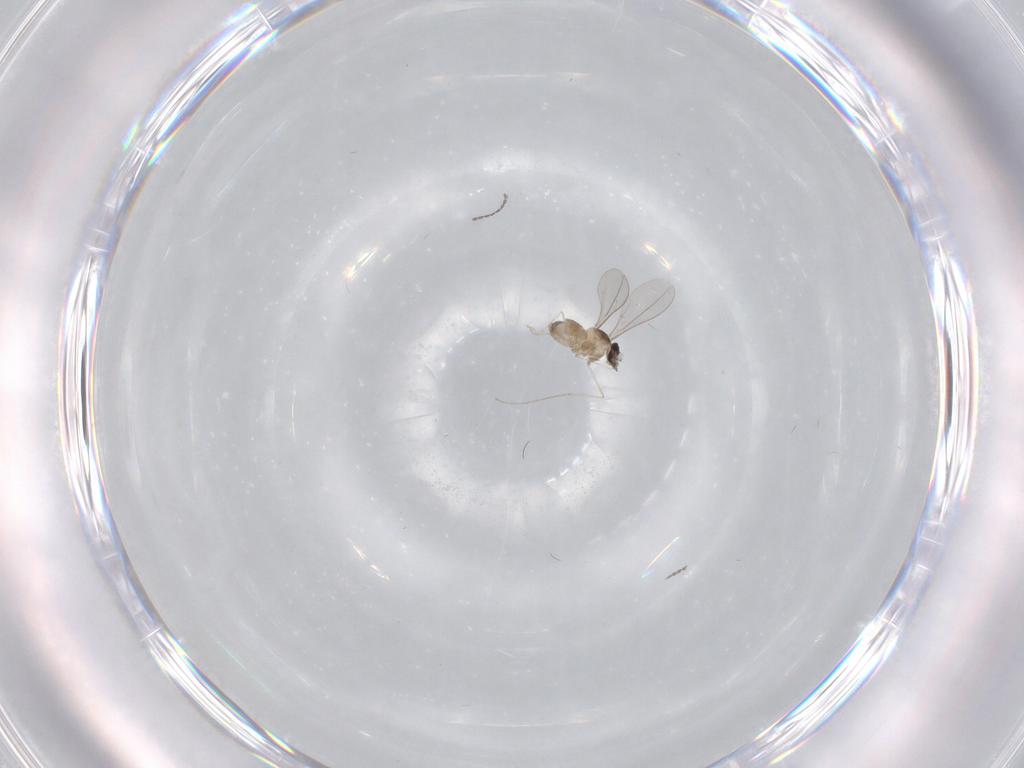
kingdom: Animalia
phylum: Arthropoda
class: Insecta
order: Diptera
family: Cecidomyiidae
